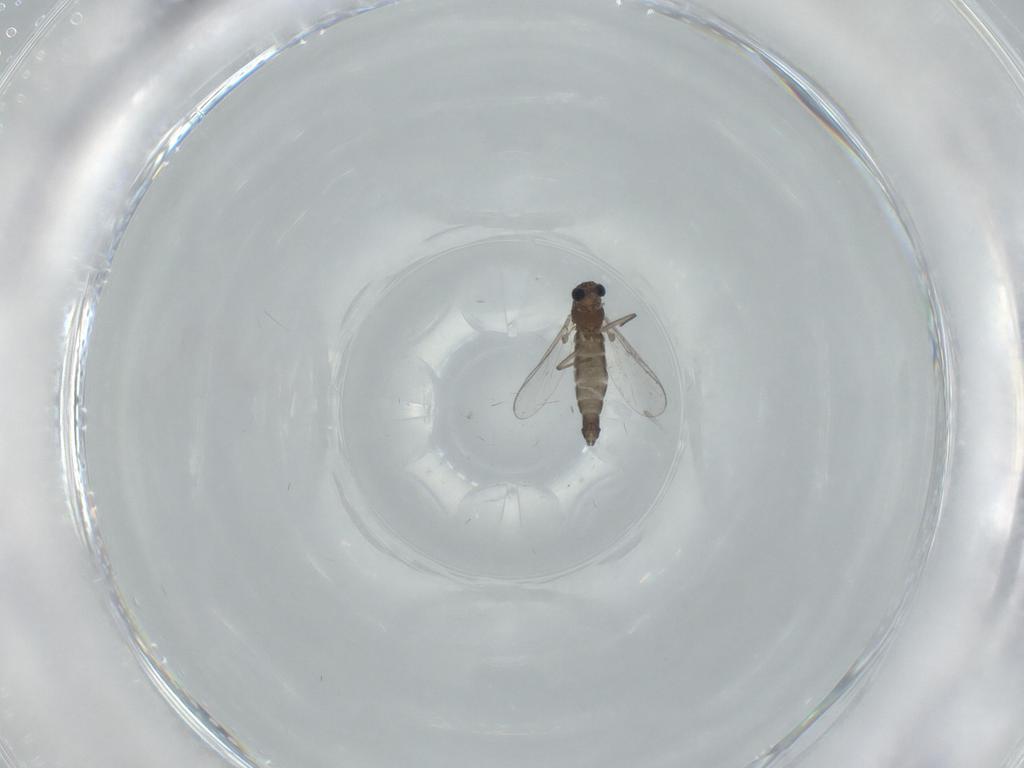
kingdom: Animalia
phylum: Arthropoda
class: Insecta
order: Diptera
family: Chironomidae
